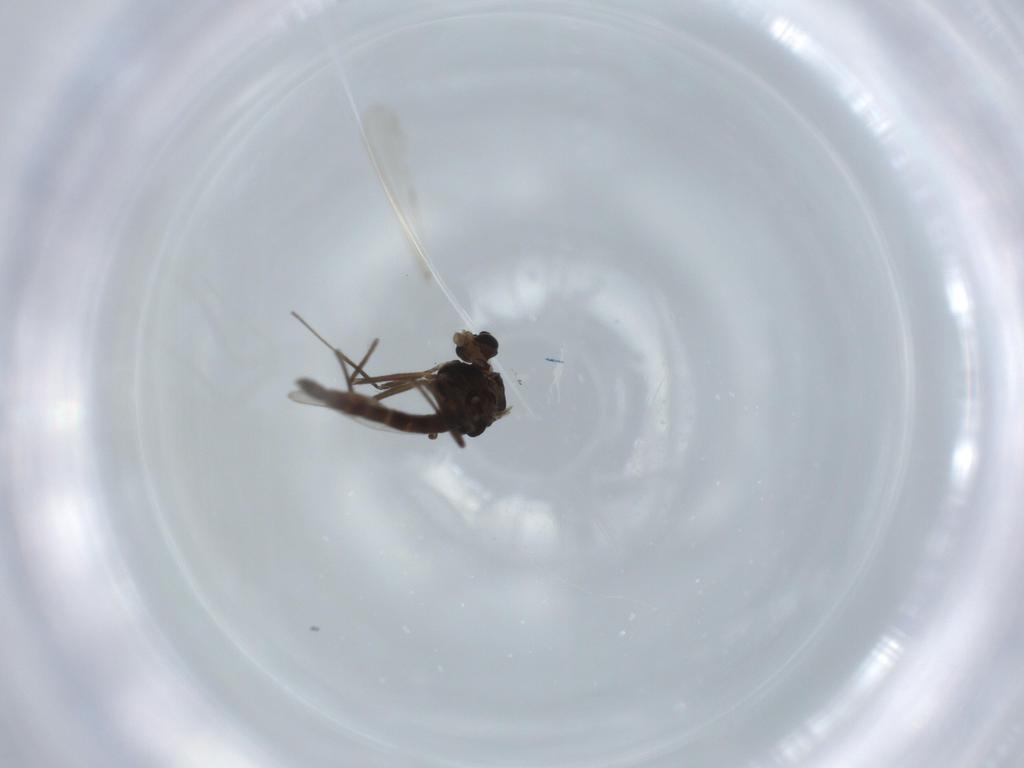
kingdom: Animalia
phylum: Arthropoda
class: Insecta
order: Diptera
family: Chironomidae
